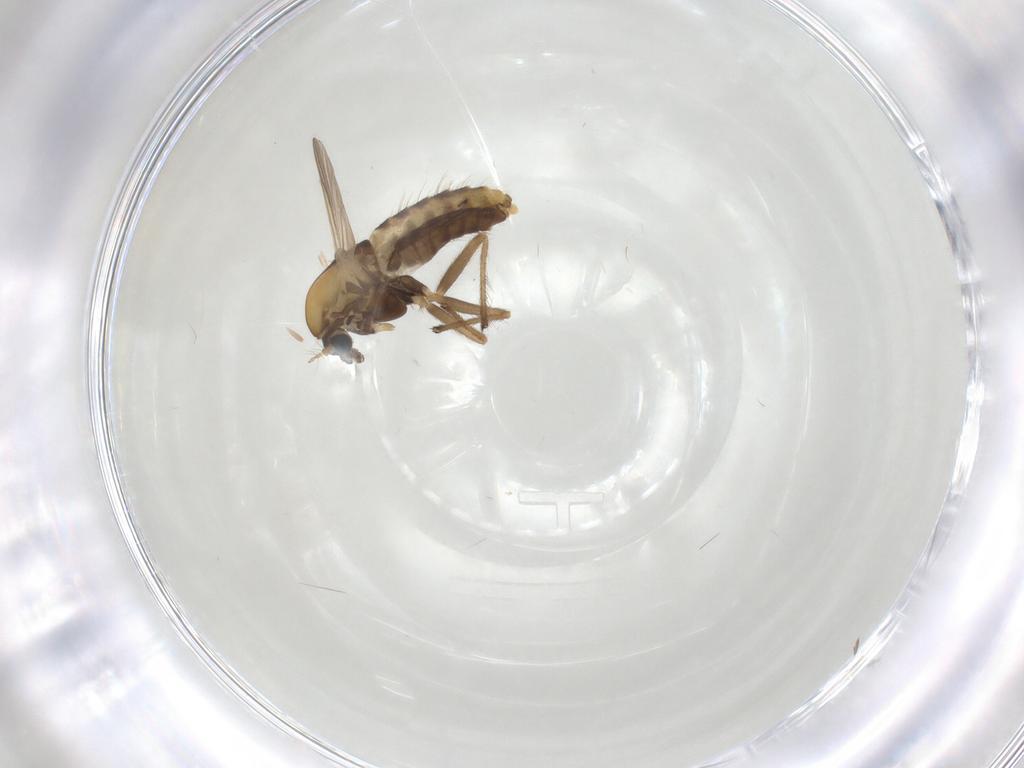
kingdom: Animalia
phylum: Arthropoda
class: Insecta
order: Diptera
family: Chironomidae
